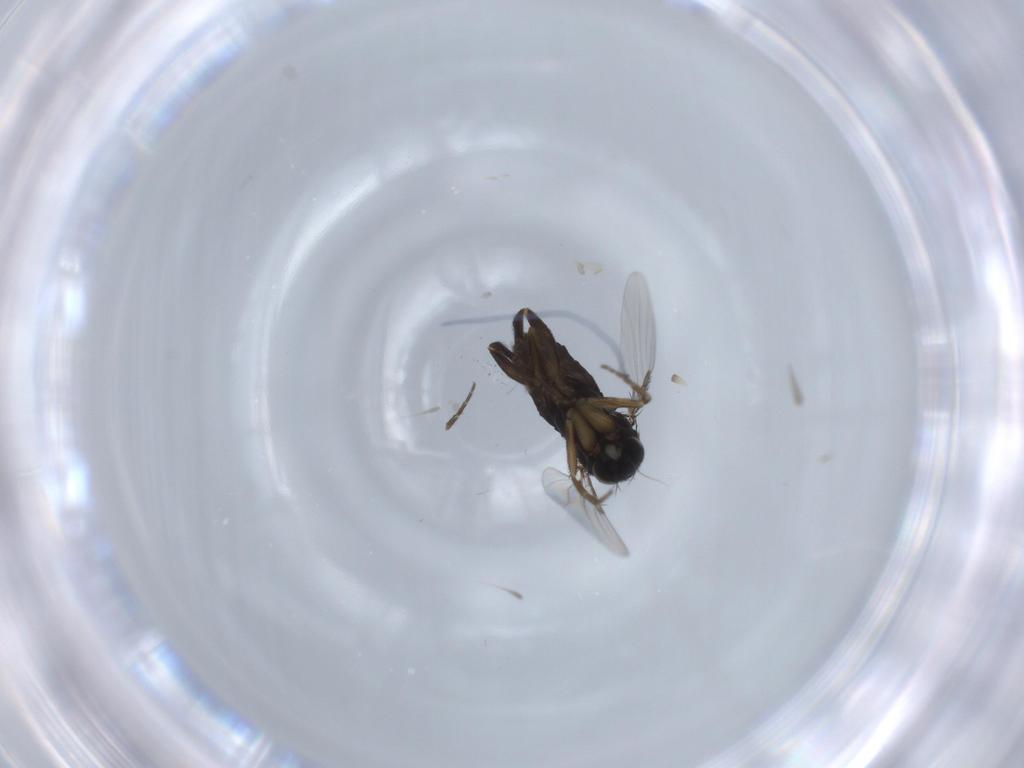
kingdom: Animalia
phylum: Arthropoda
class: Insecta
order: Diptera
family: Phoridae
